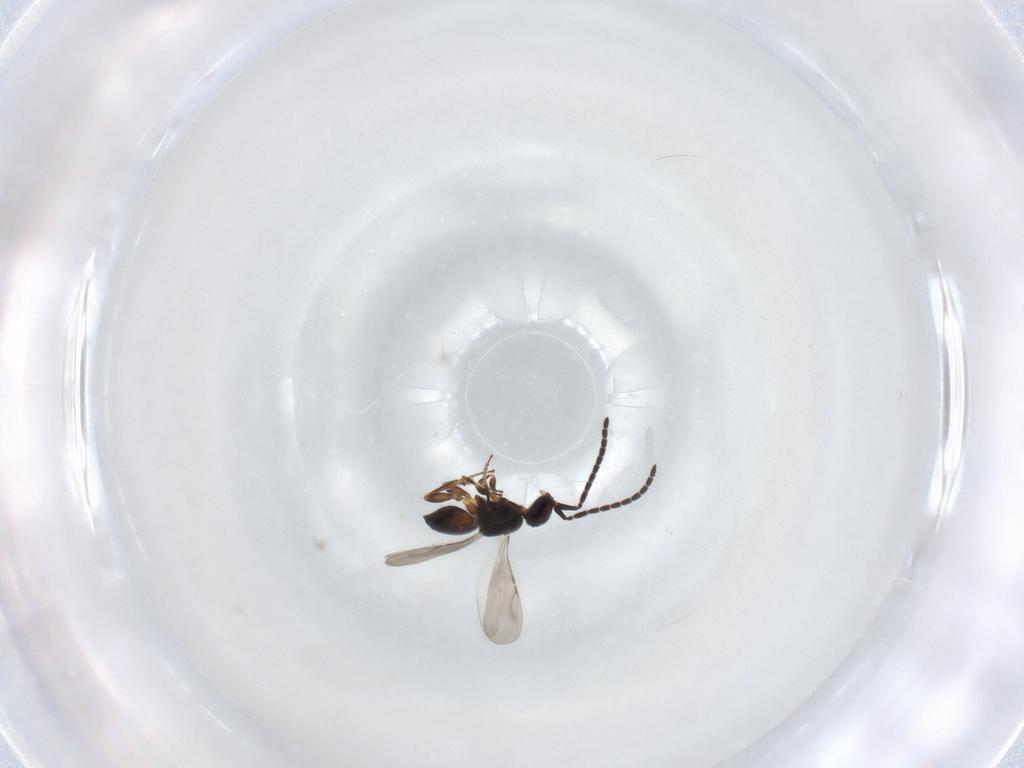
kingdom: Animalia
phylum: Arthropoda
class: Insecta
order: Hymenoptera
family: Platygastridae
